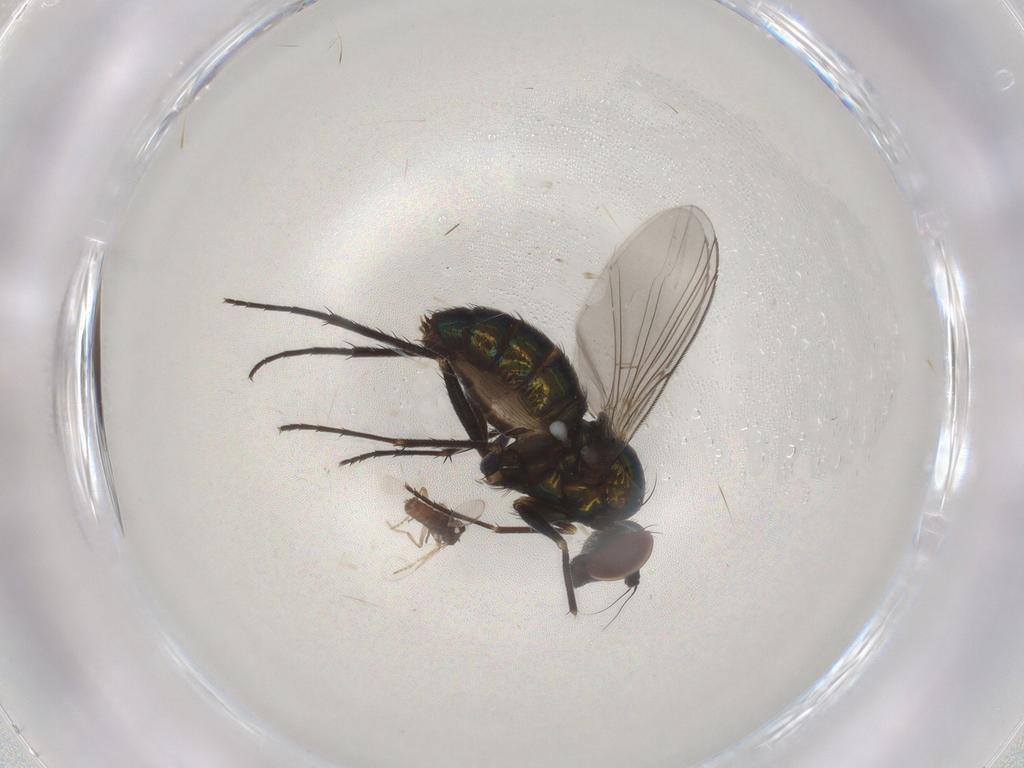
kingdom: Animalia
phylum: Arthropoda
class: Insecta
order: Diptera
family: Dolichopodidae
